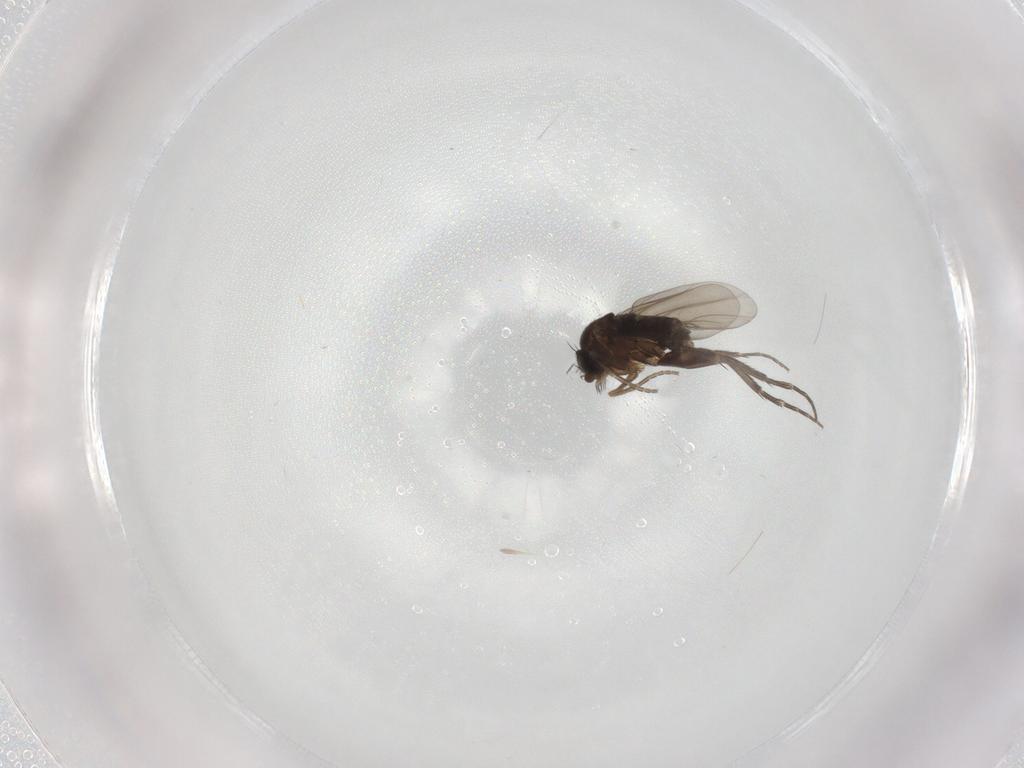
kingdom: Animalia
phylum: Arthropoda
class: Insecta
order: Diptera
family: Phoridae
